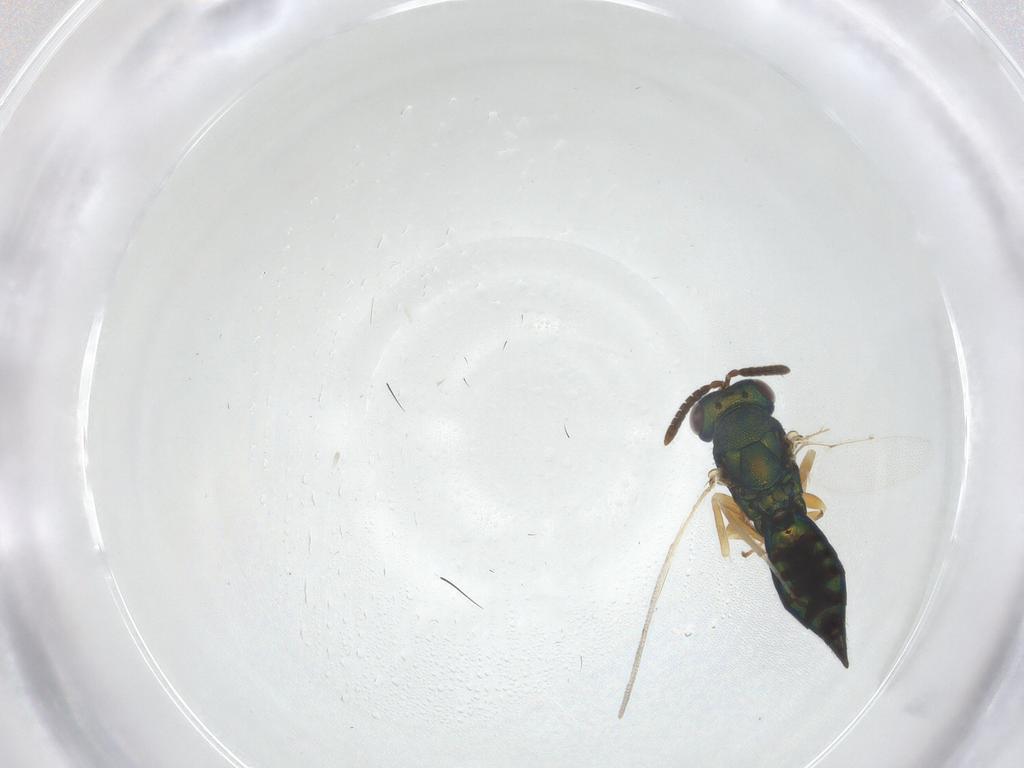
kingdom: Animalia
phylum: Arthropoda
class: Insecta
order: Hymenoptera
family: Pteromalidae
